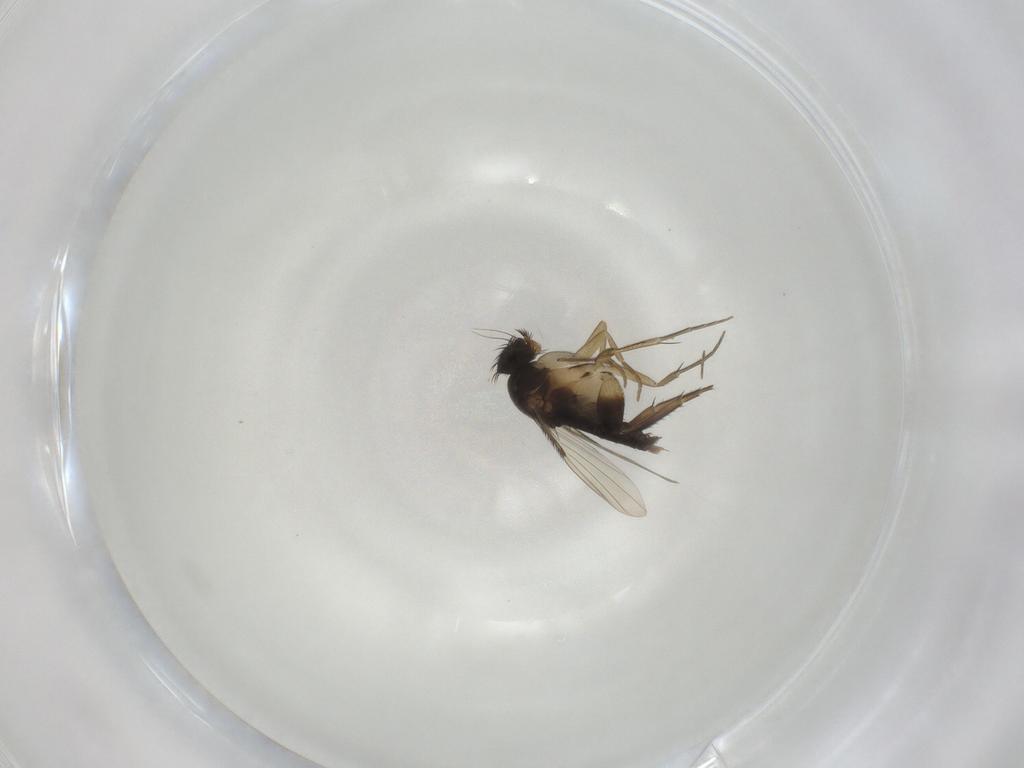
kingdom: Animalia
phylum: Arthropoda
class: Insecta
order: Diptera
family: Phoridae
